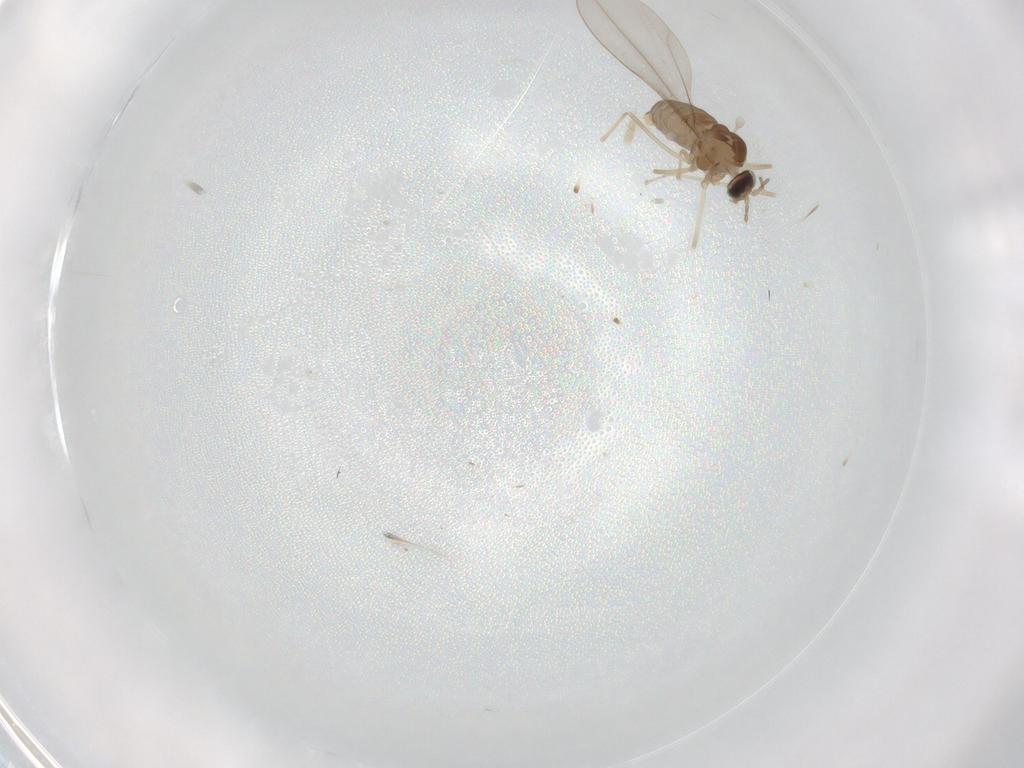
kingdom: Animalia
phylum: Arthropoda
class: Insecta
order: Diptera
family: Cecidomyiidae
